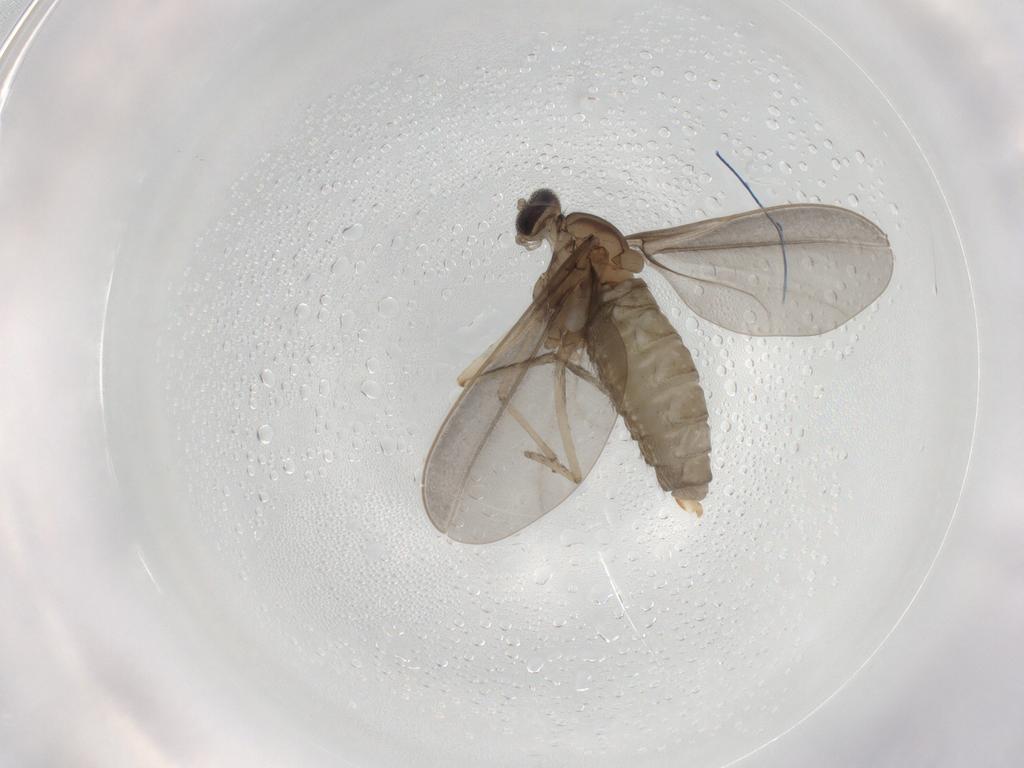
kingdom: Animalia
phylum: Arthropoda
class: Insecta
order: Diptera
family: Cecidomyiidae
